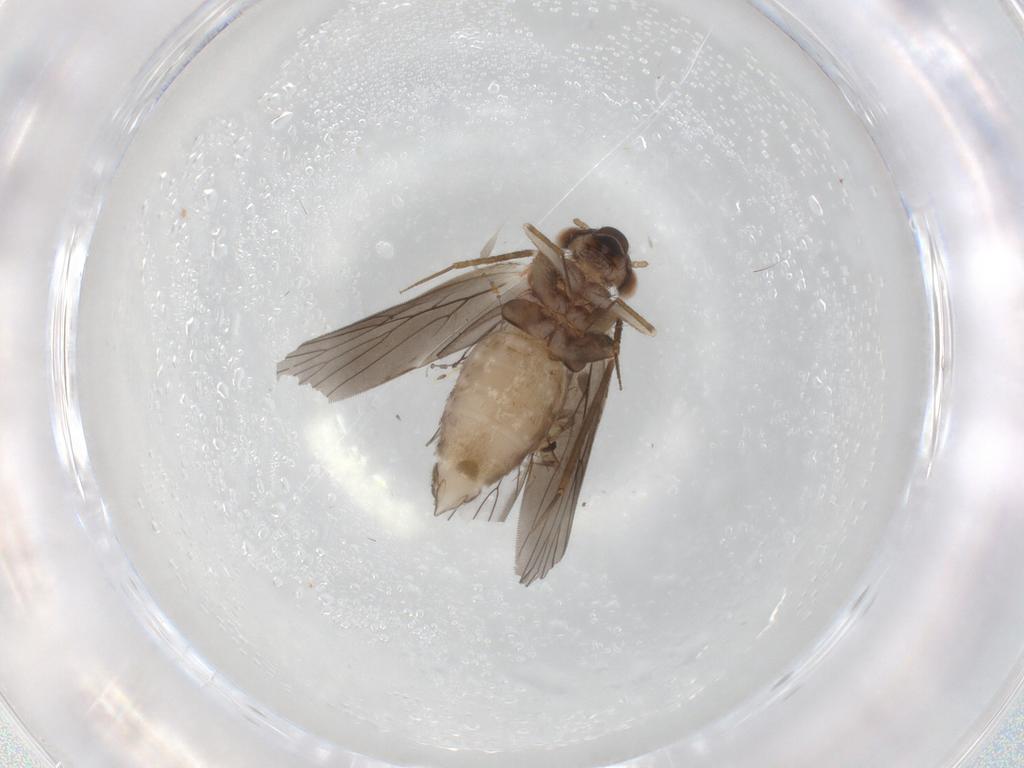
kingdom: Animalia
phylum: Arthropoda
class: Insecta
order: Psocodea
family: Lepidopsocidae
